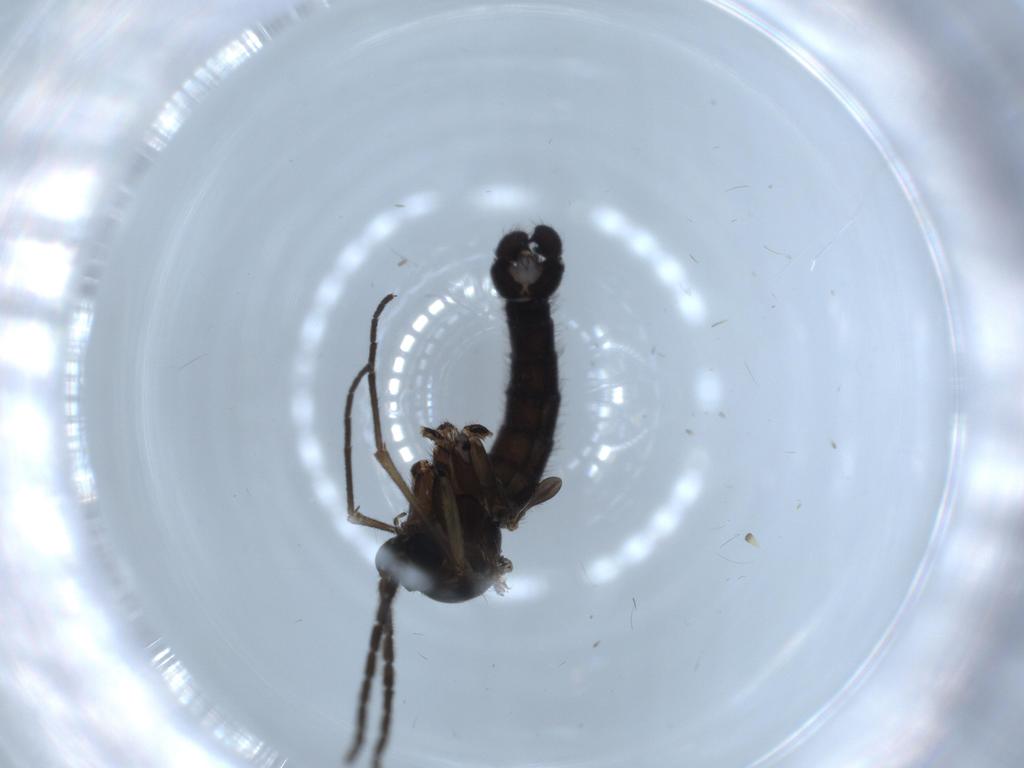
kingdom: Animalia
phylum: Arthropoda
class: Insecta
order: Diptera
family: Sciaridae
